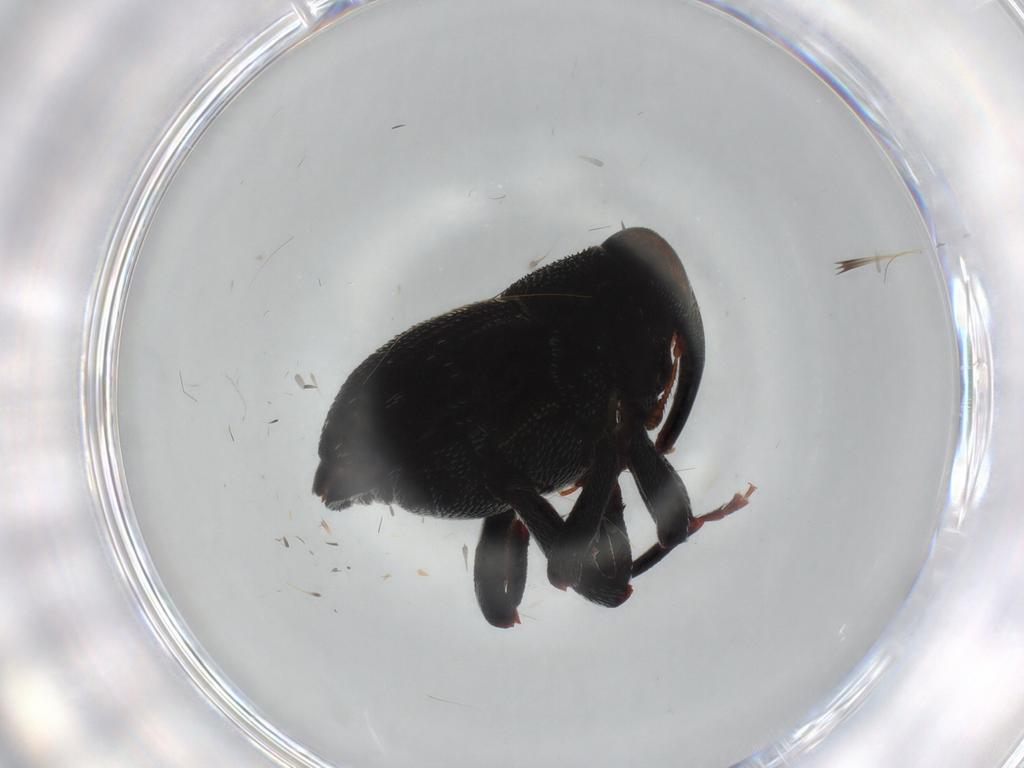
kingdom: Animalia
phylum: Arthropoda
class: Insecta
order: Coleoptera
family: Curculionidae
